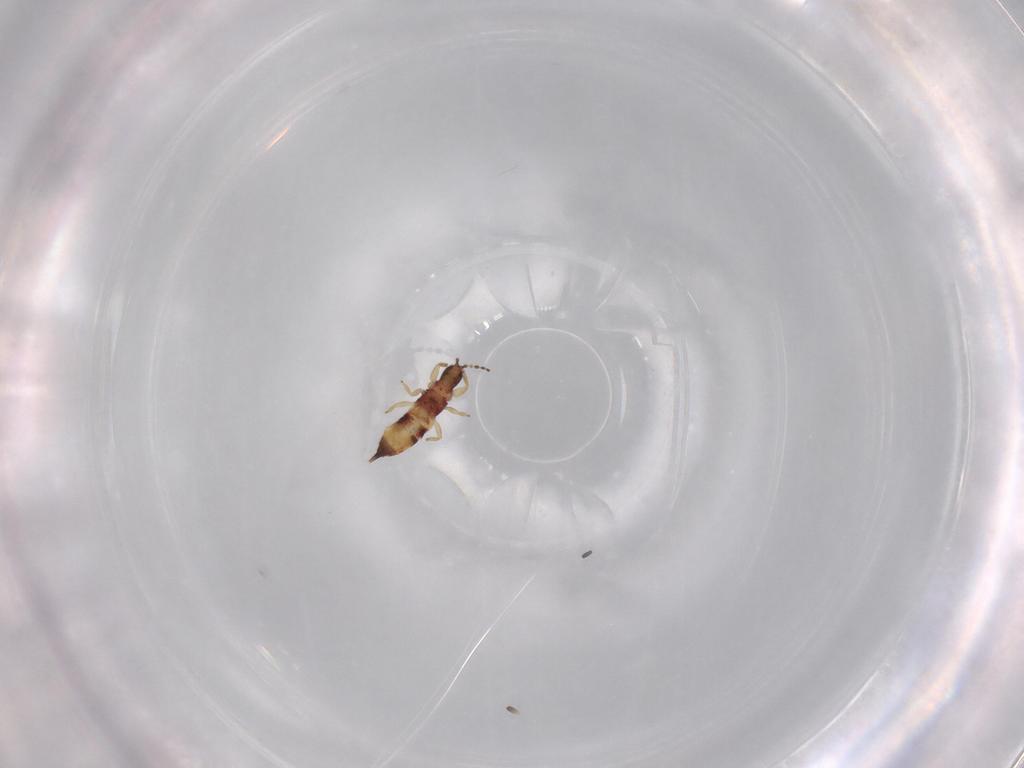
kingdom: Animalia
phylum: Arthropoda
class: Insecta
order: Thysanoptera
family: Phlaeothripidae
